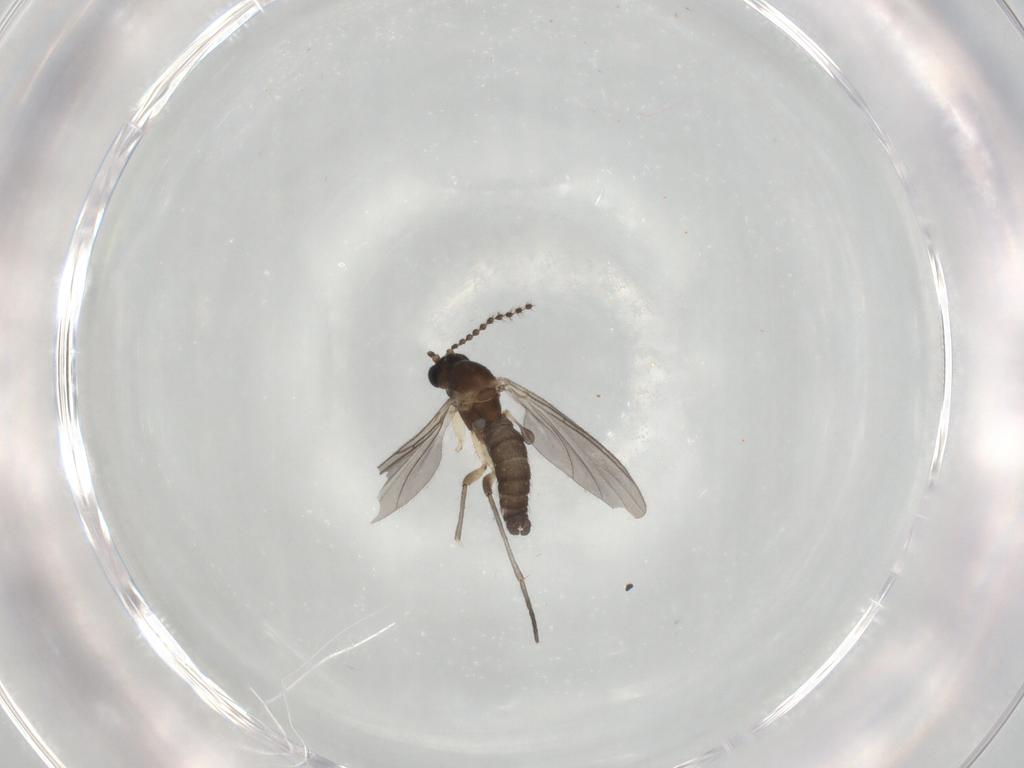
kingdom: Animalia
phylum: Arthropoda
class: Insecta
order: Diptera
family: Sciaridae
